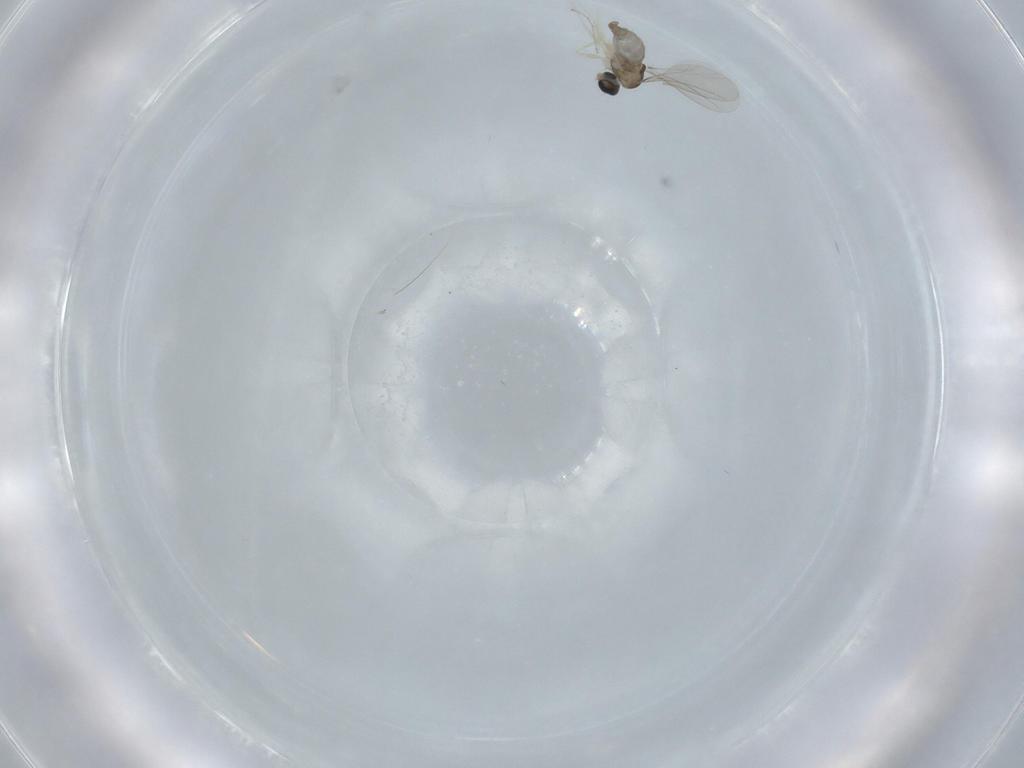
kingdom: Animalia
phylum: Arthropoda
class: Insecta
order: Diptera
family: Cecidomyiidae
